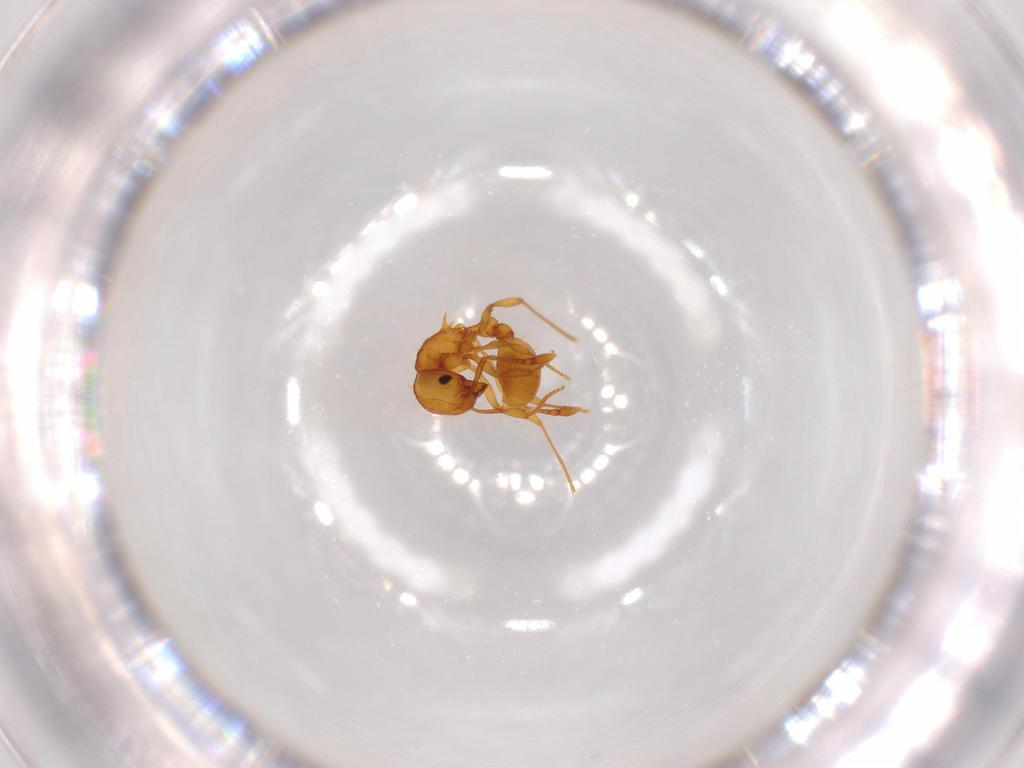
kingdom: Animalia
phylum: Arthropoda
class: Insecta
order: Hymenoptera
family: Formicidae
